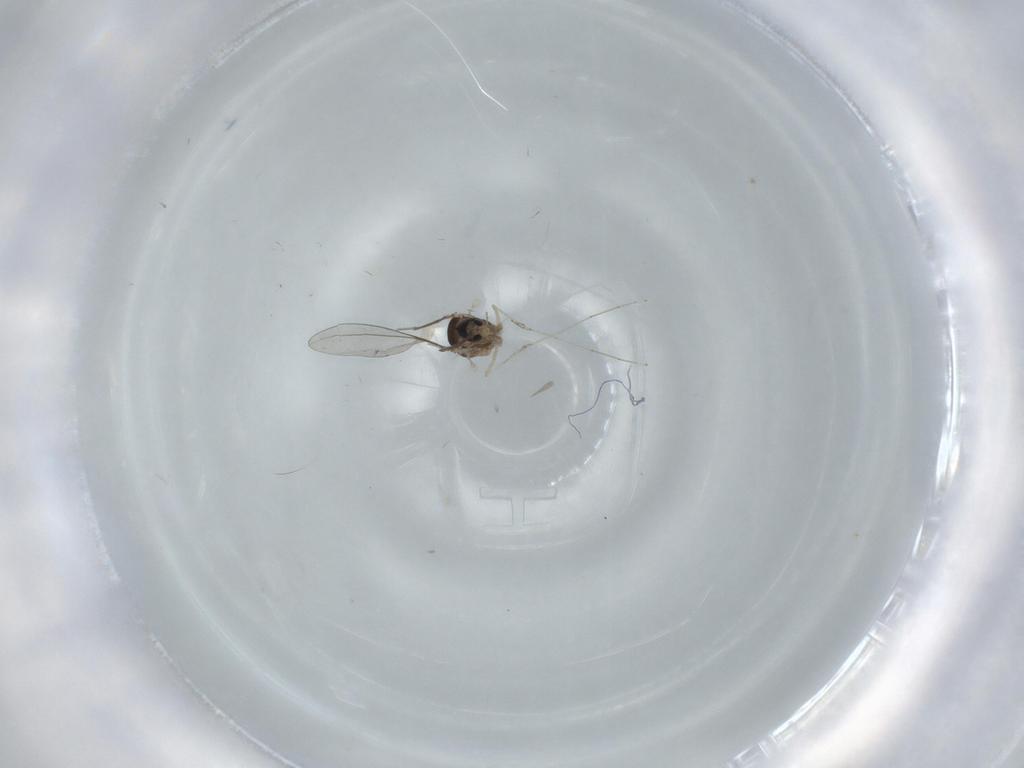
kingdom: Animalia
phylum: Arthropoda
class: Insecta
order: Diptera
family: Cecidomyiidae
